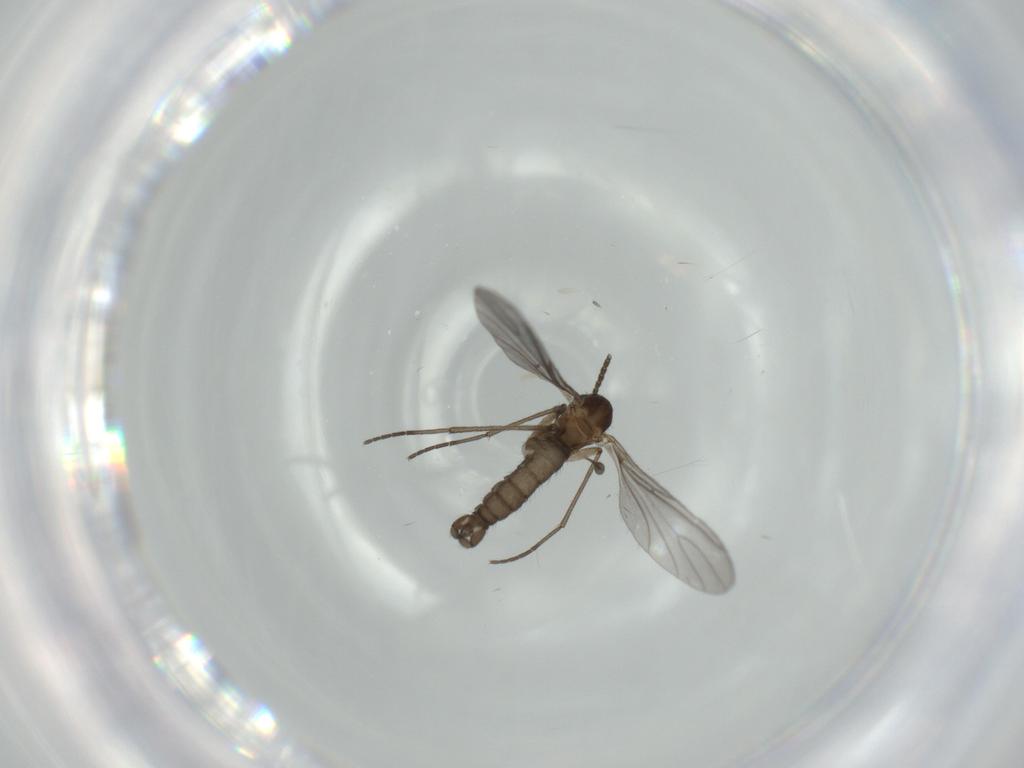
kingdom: Animalia
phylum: Arthropoda
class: Insecta
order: Diptera
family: Sciaridae
